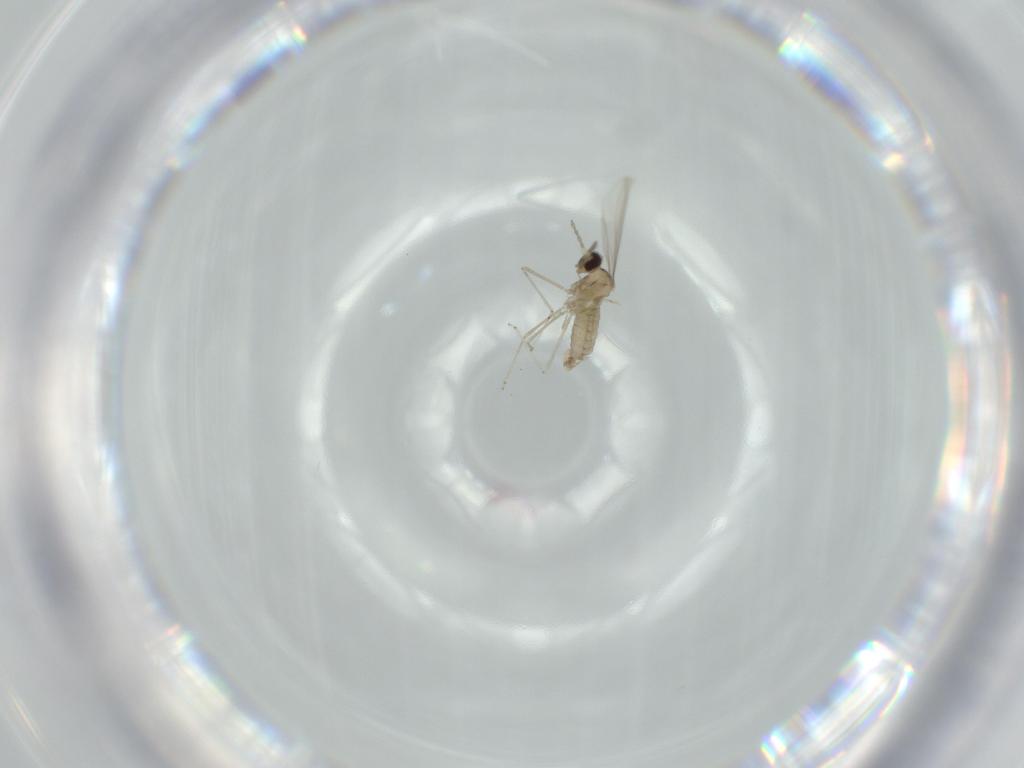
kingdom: Animalia
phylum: Arthropoda
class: Insecta
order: Diptera
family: Cecidomyiidae
